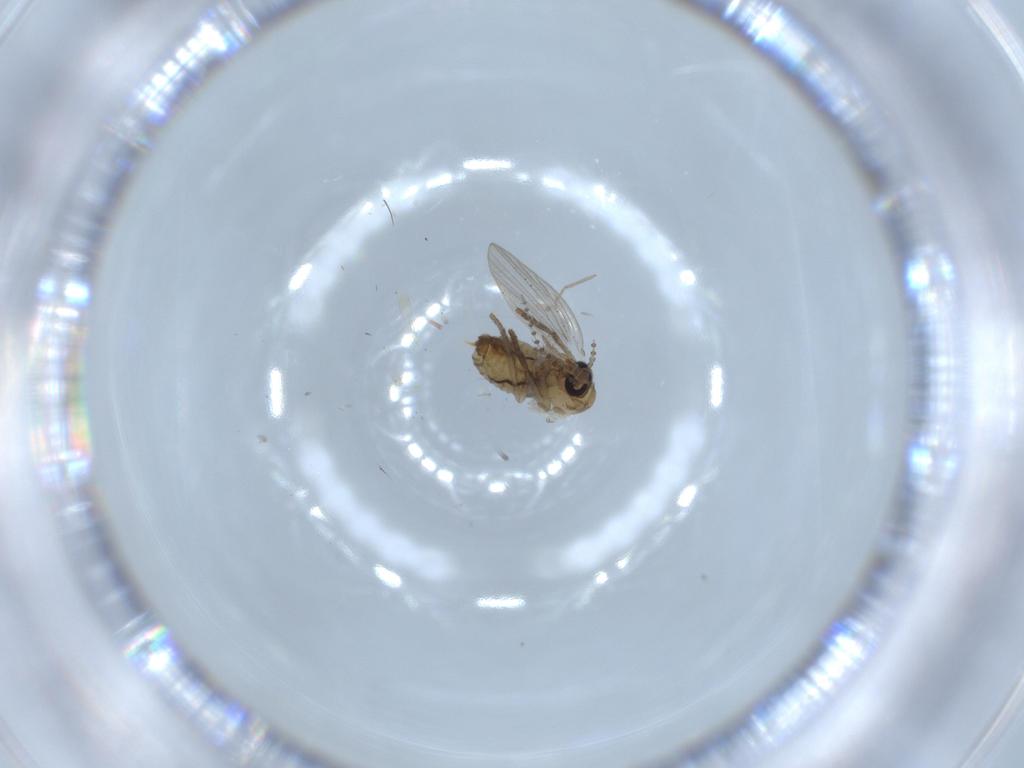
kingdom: Animalia
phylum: Arthropoda
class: Insecta
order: Diptera
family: Psychodidae
